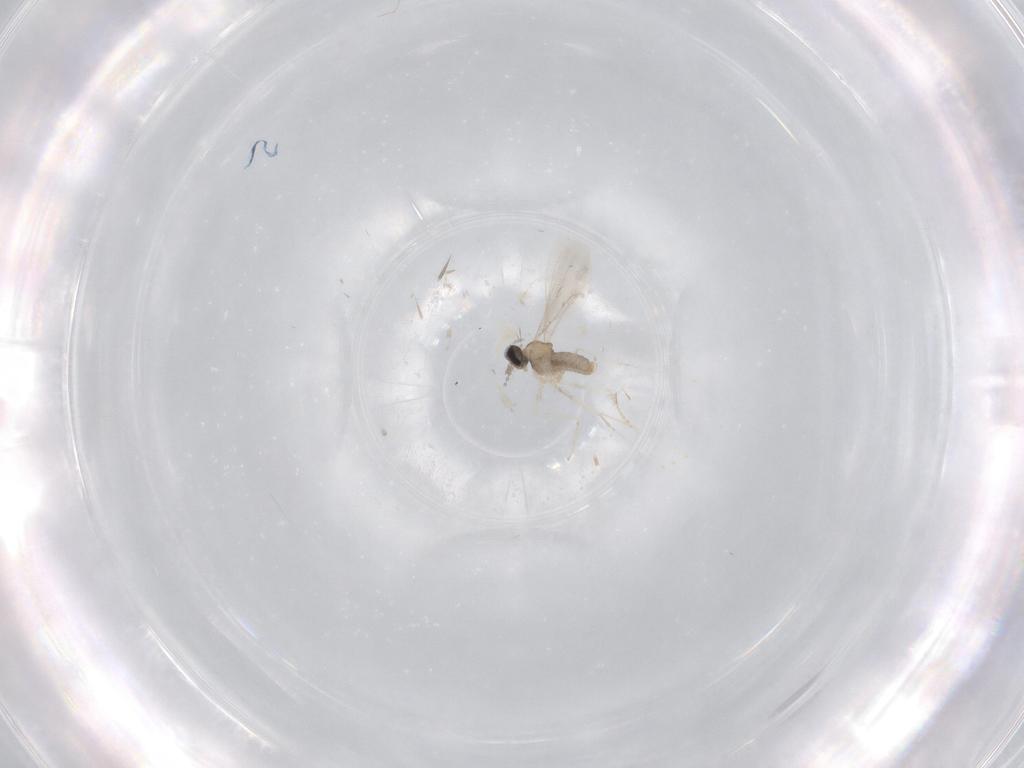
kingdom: Animalia
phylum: Arthropoda
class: Insecta
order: Diptera
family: Cecidomyiidae
